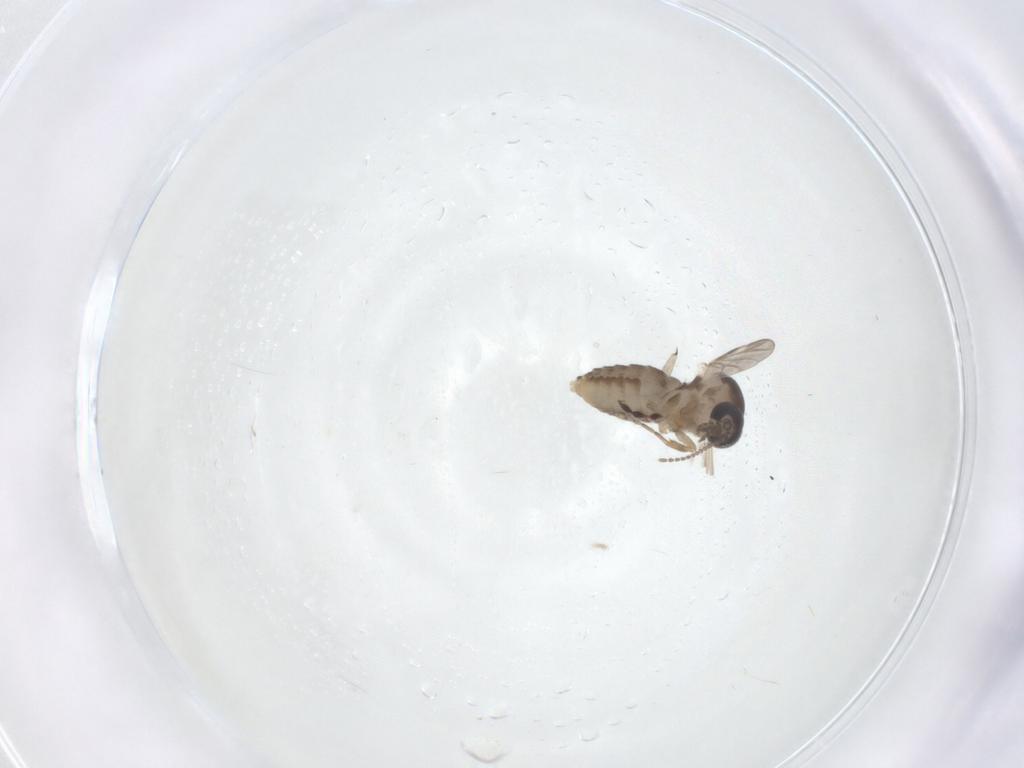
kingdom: Animalia
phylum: Arthropoda
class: Insecta
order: Diptera
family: Ceratopogonidae
